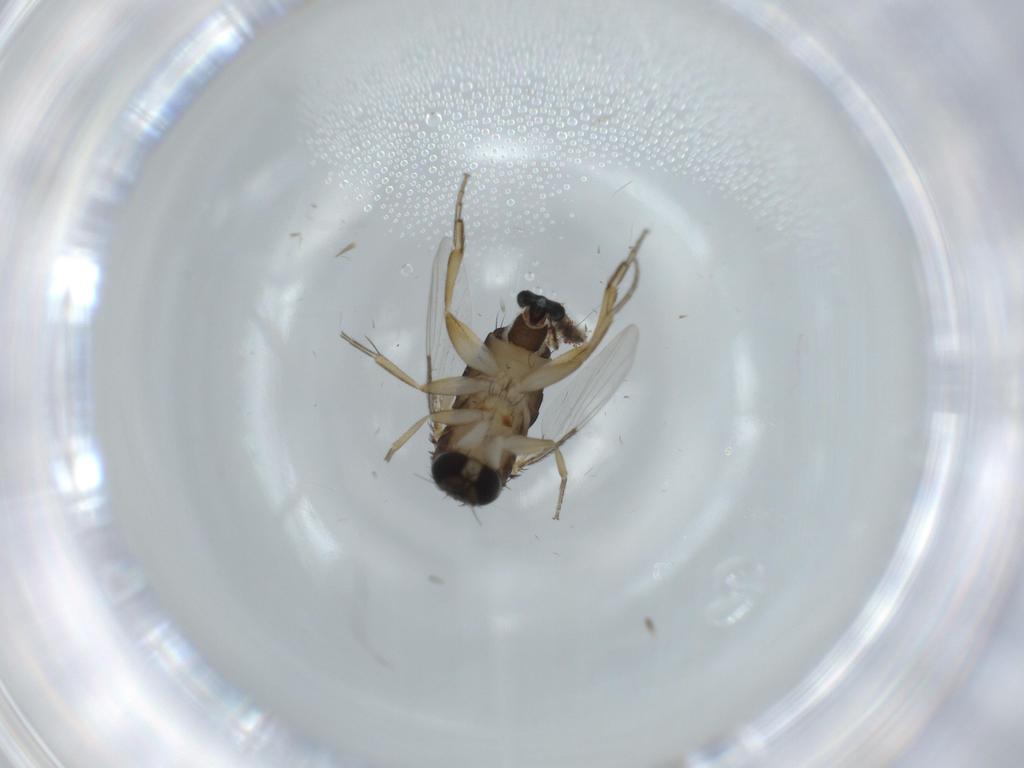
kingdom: Animalia
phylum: Arthropoda
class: Insecta
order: Diptera
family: Phoridae
